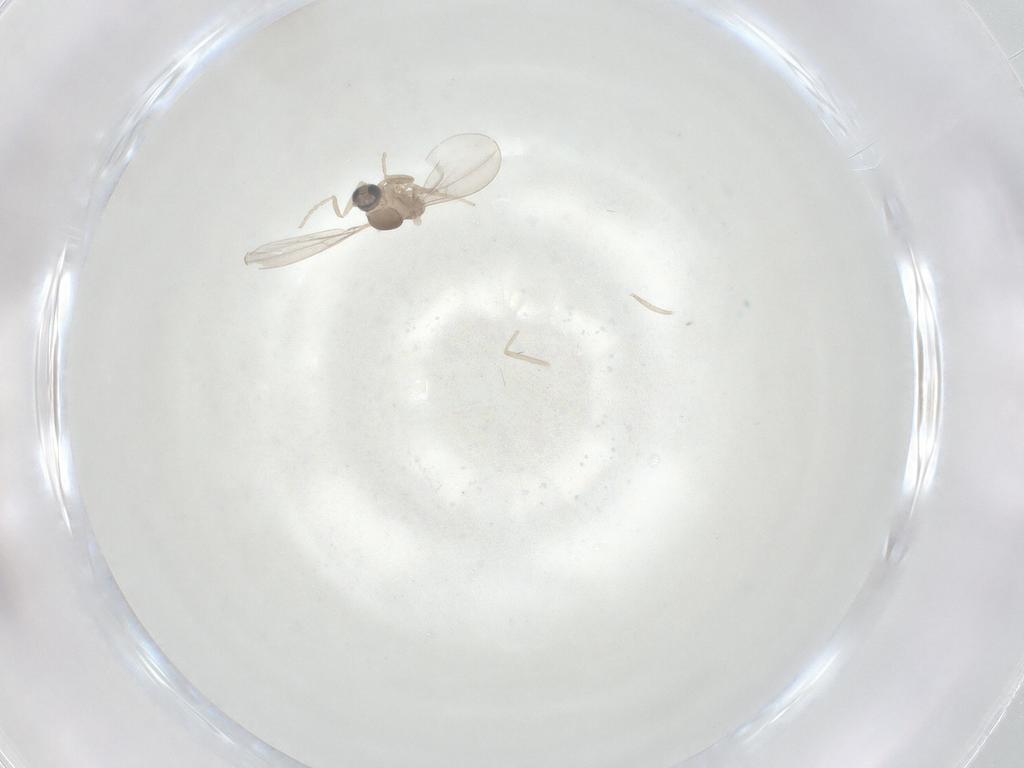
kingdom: Animalia
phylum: Arthropoda
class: Insecta
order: Diptera
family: Cecidomyiidae
